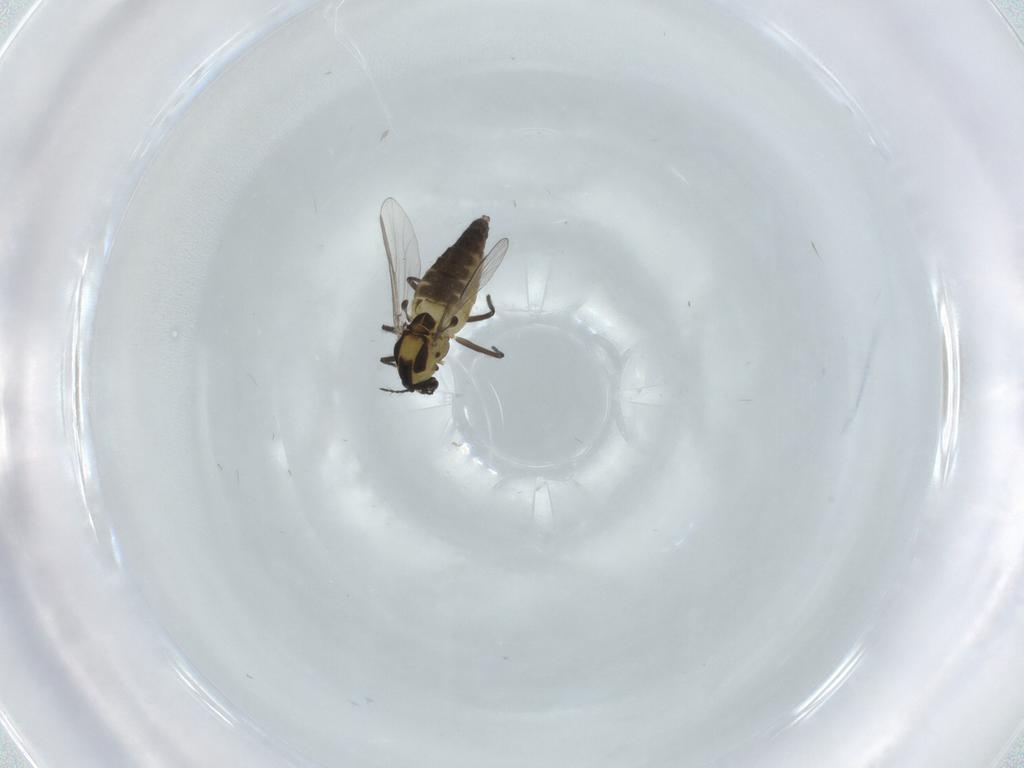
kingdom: Animalia
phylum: Arthropoda
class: Insecta
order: Diptera
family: Chironomidae
